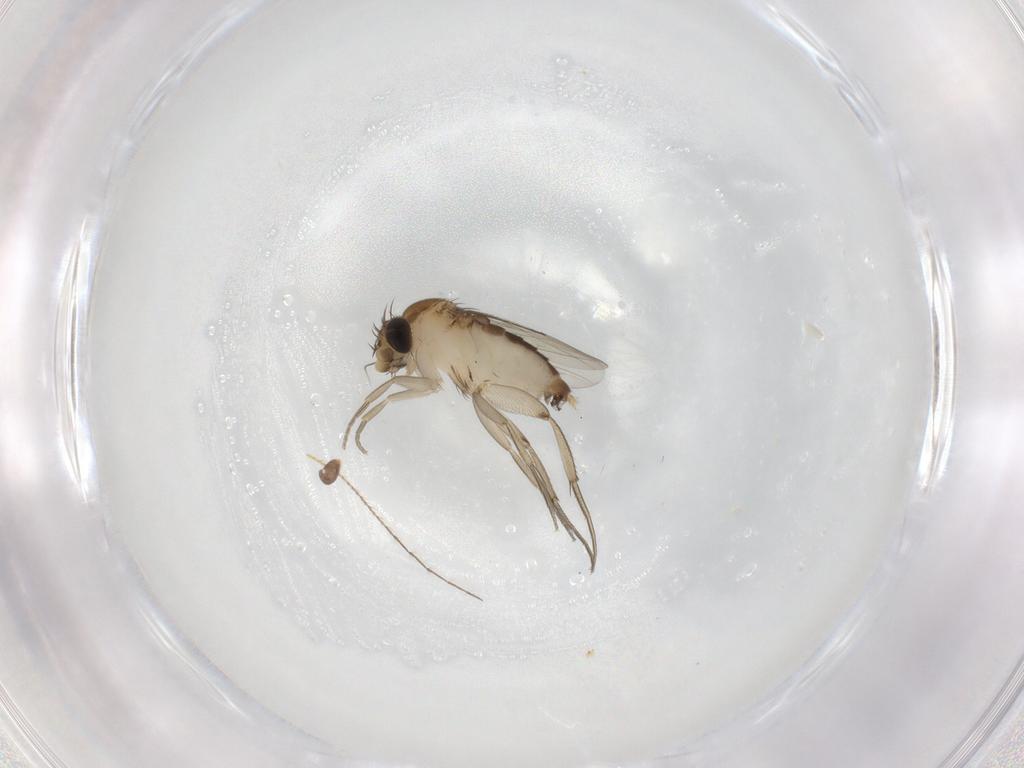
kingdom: Animalia
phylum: Arthropoda
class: Insecta
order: Diptera
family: Phoridae
